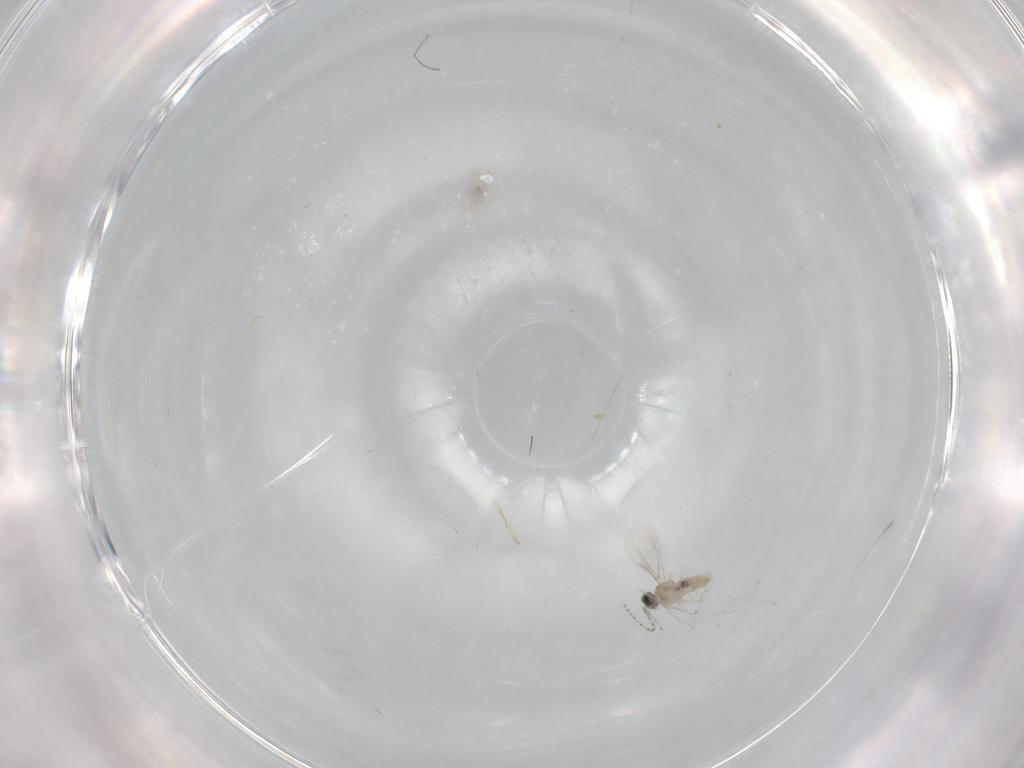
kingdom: Animalia
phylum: Arthropoda
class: Insecta
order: Diptera
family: Cecidomyiidae
